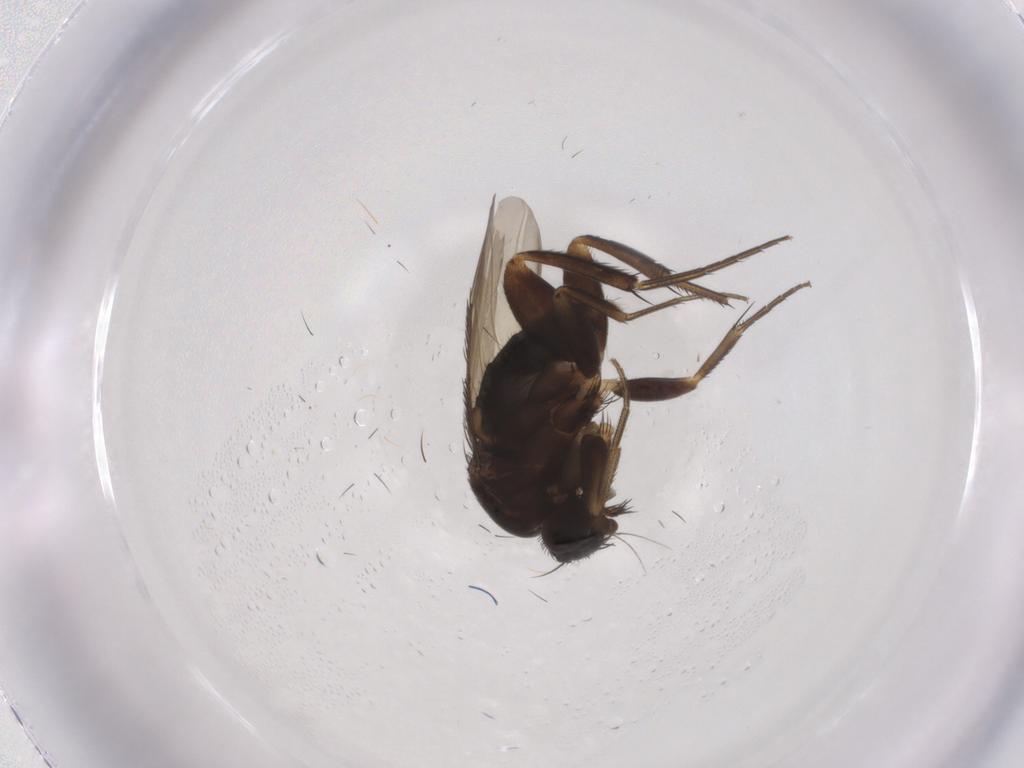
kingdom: Animalia
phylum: Arthropoda
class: Insecta
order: Diptera
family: Phoridae
